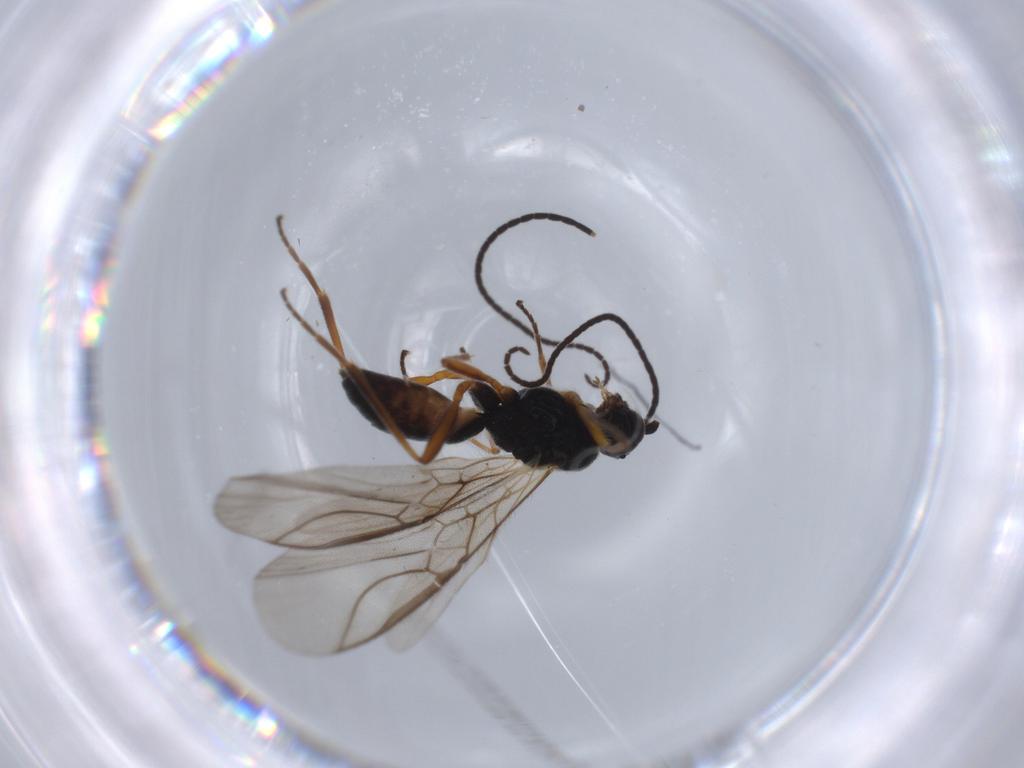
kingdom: Animalia
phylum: Arthropoda
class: Insecta
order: Hymenoptera
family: Braconidae
